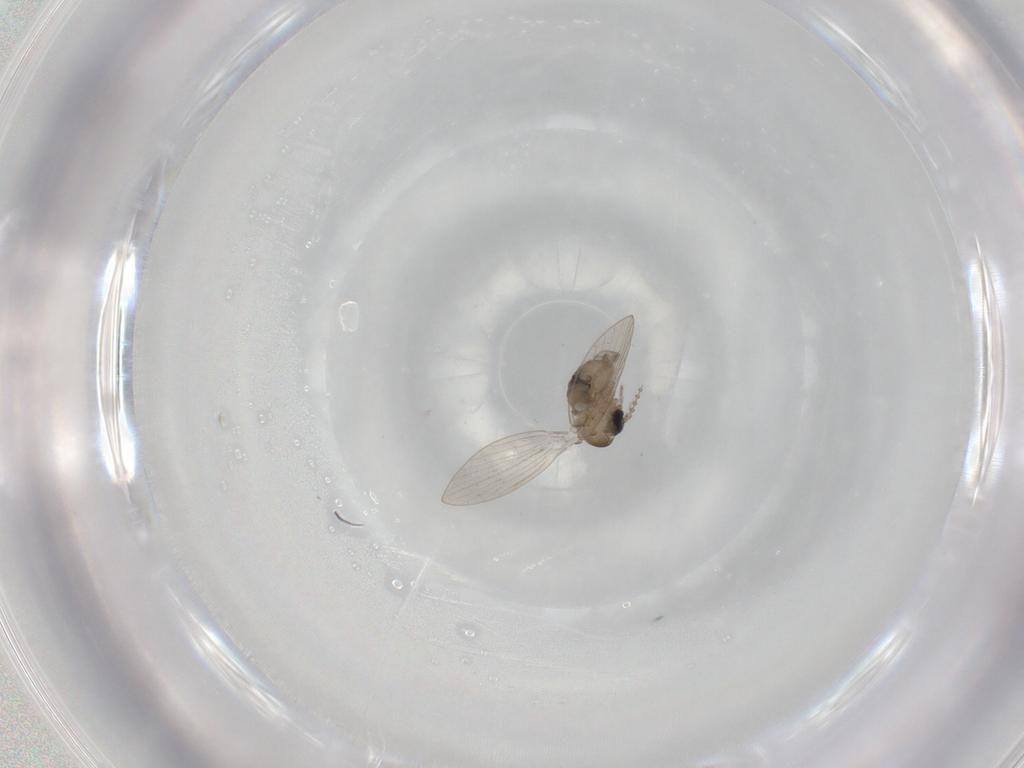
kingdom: Animalia
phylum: Arthropoda
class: Insecta
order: Diptera
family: Psychodidae
